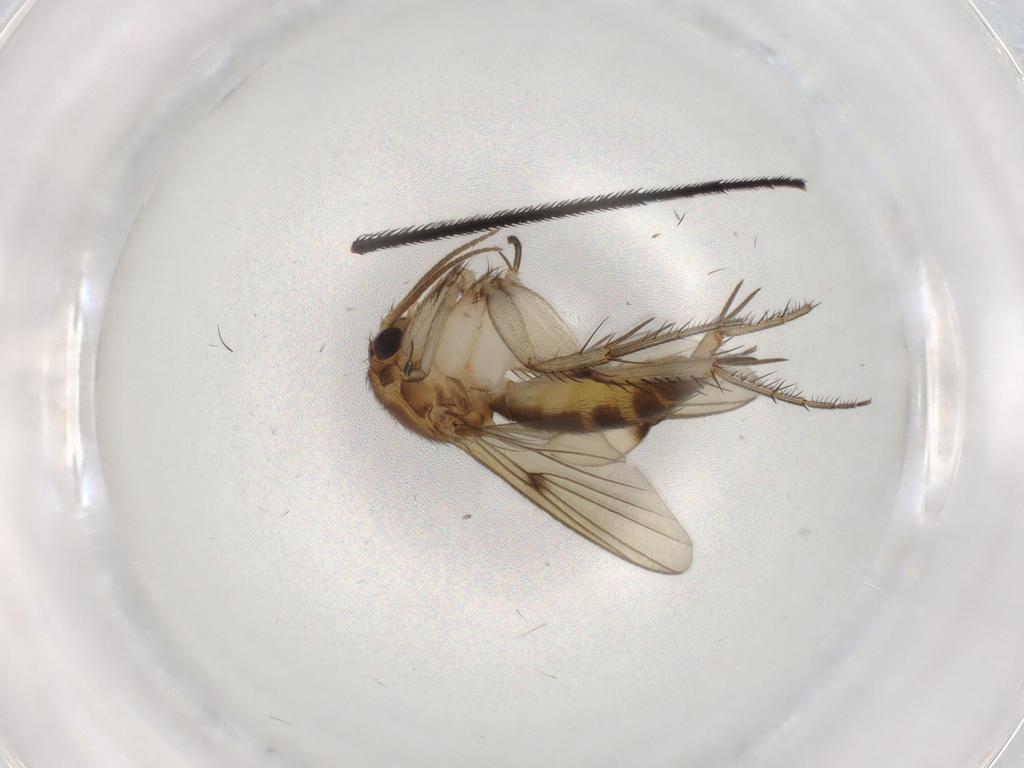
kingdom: Animalia
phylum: Arthropoda
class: Insecta
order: Diptera
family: Mycetophilidae
